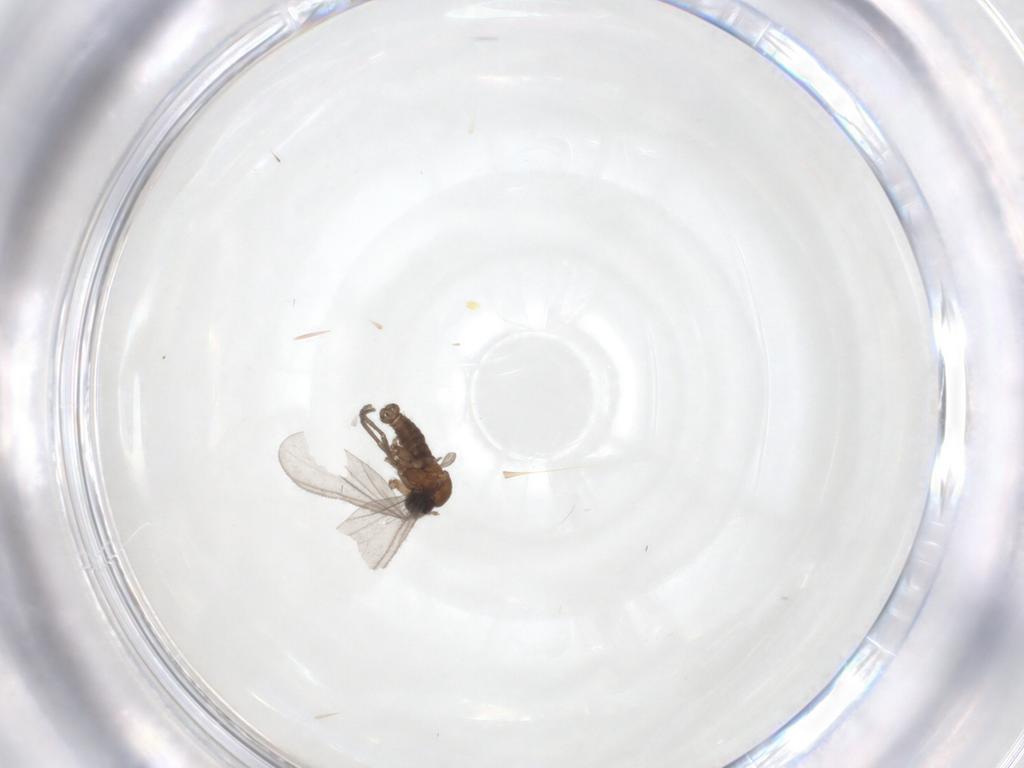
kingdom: Animalia
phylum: Arthropoda
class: Insecta
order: Diptera
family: Sciaridae
